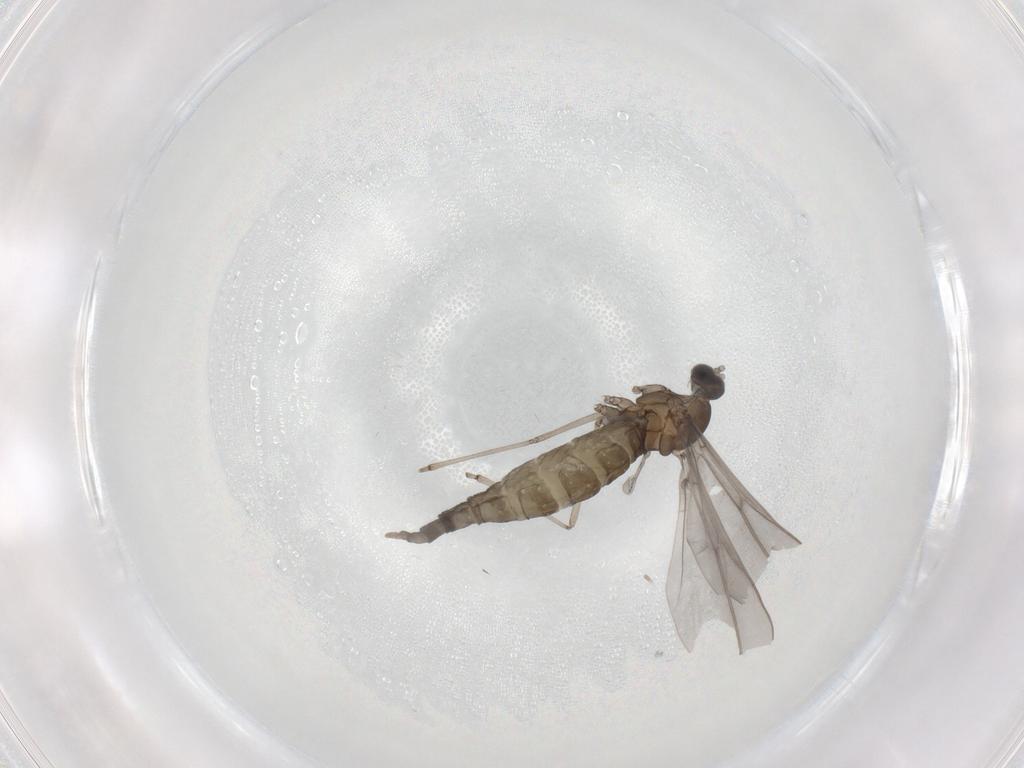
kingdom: Animalia
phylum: Arthropoda
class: Insecta
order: Diptera
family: Cecidomyiidae
